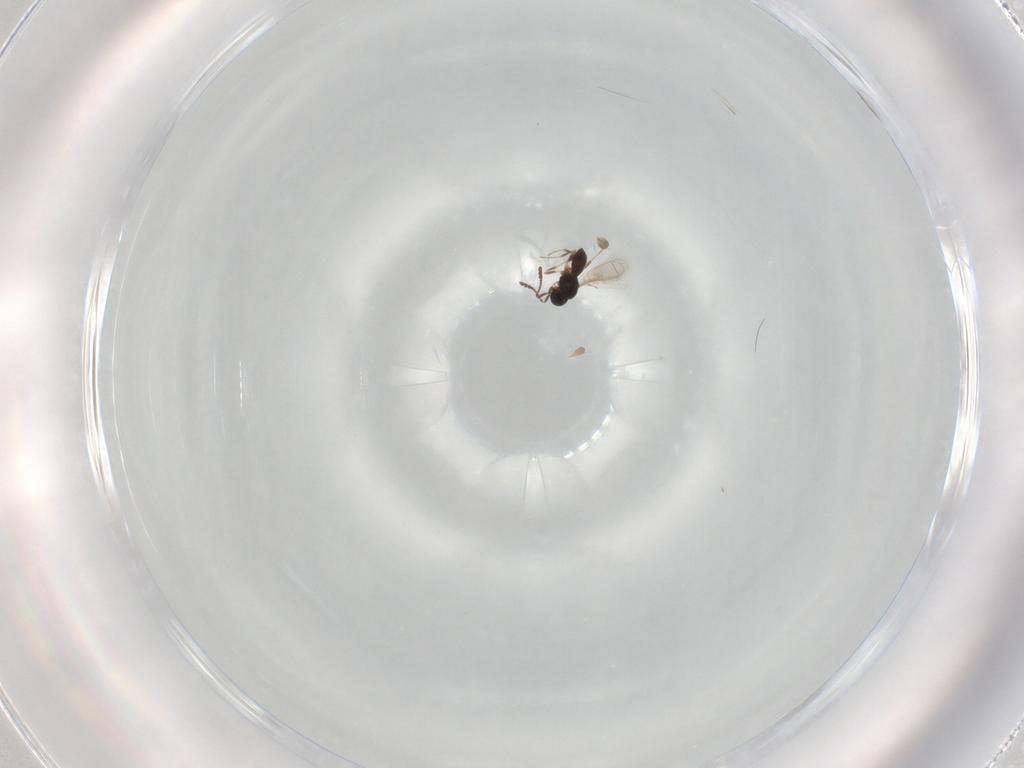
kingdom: Animalia
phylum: Arthropoda
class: Insecta
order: Hymenoptera
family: Scelionidae
